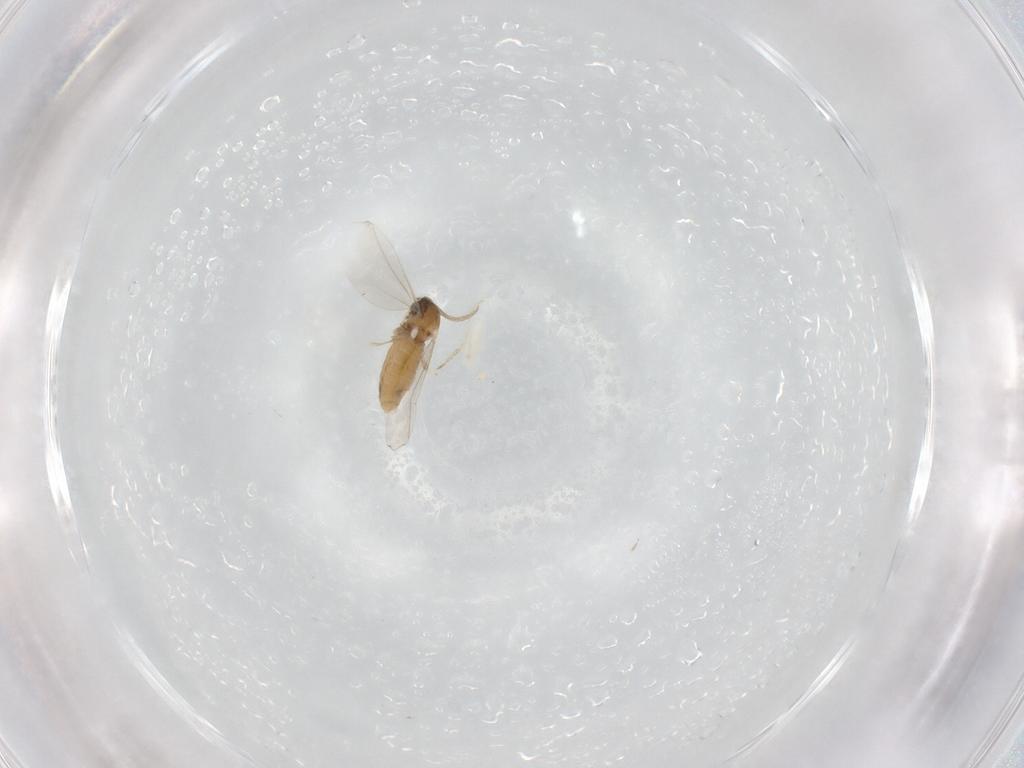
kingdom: Animalia
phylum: Arthropoda
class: Insecta
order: Diptera
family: Cecidomyiidae
